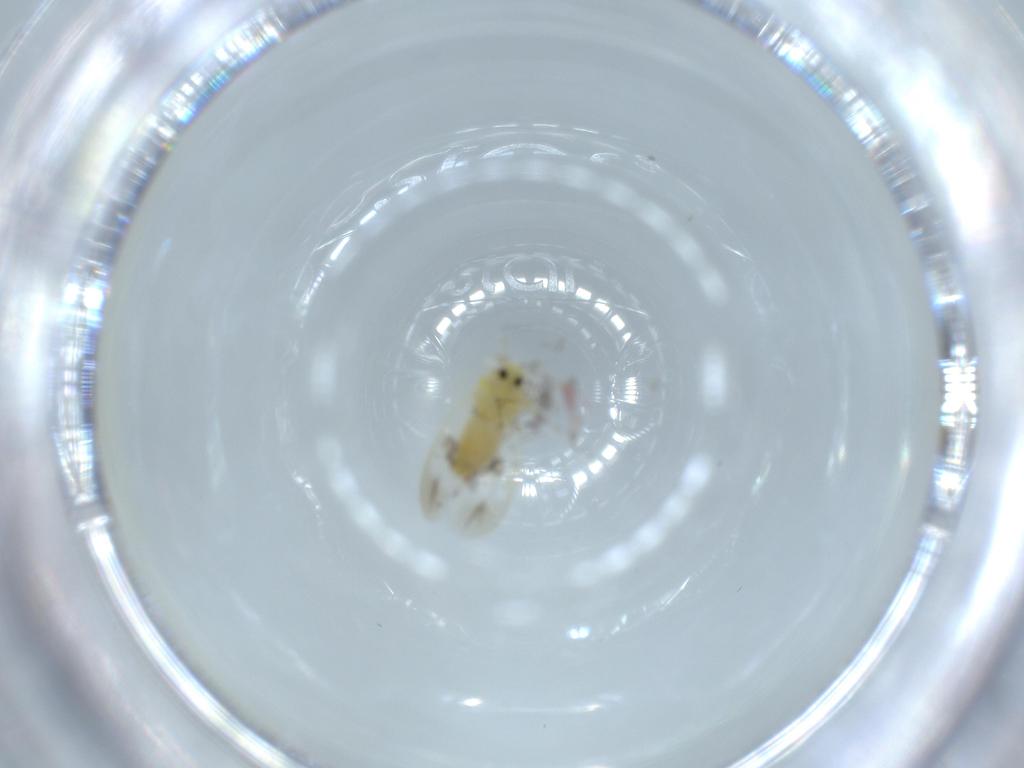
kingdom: Animalia
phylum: Arthropoda
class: Insecta
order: Hemiptera
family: Aleyrodidae
